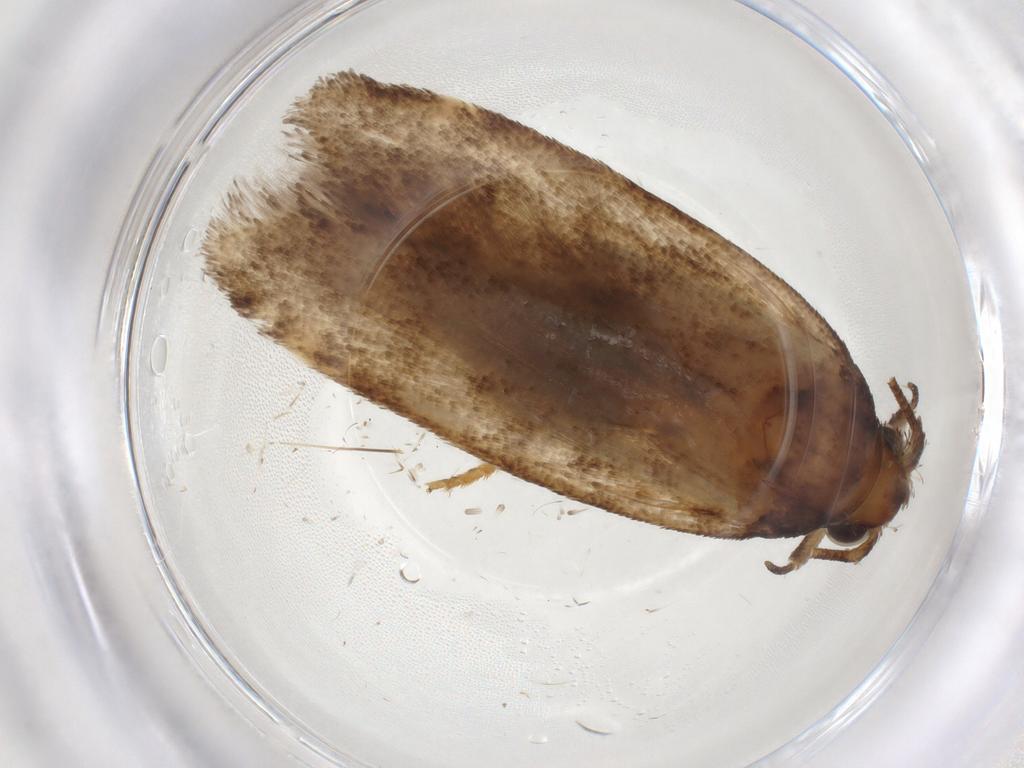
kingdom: Animalia
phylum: Arthropoda
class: Insecta
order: Lepidoptera
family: Gelechiidae
